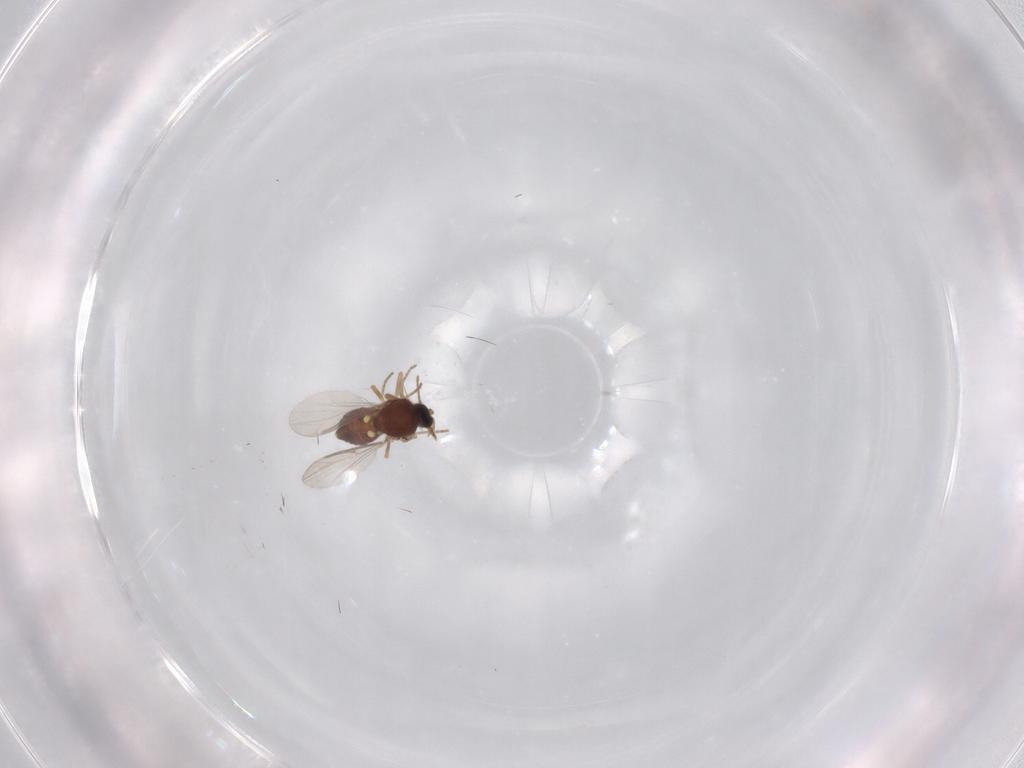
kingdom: Animalia
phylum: Arthropoda
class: Insecta
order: Diptera
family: Ceratopogonidae
